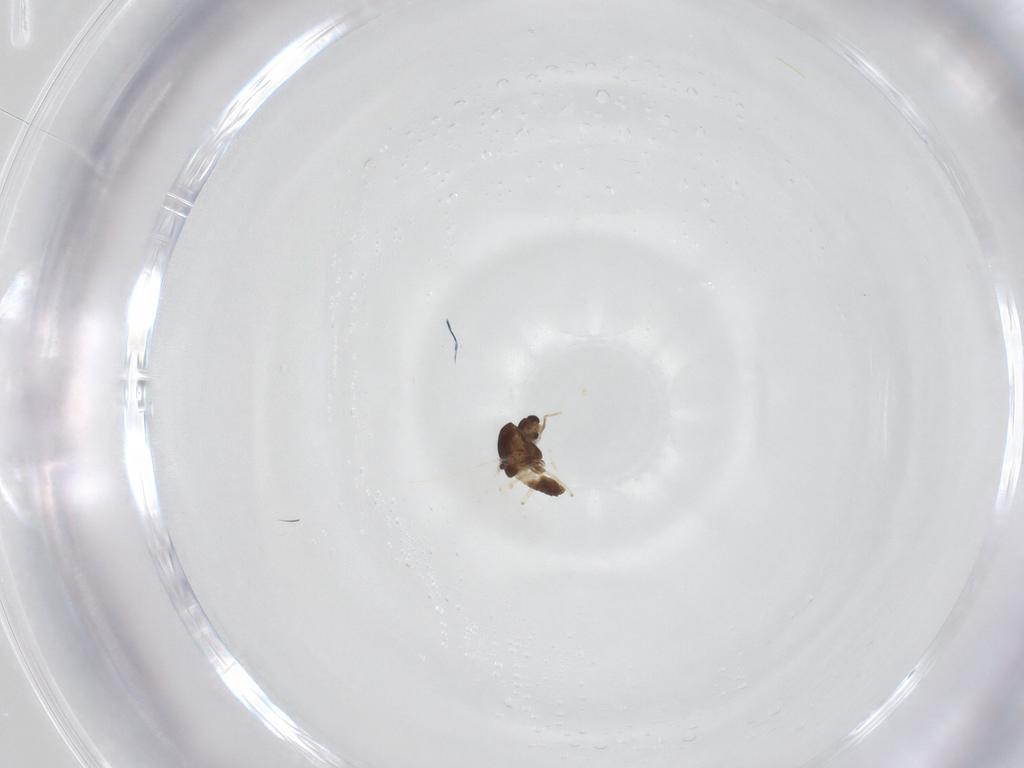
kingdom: Animalia
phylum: Arthropoda
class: Insecta
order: Diptera
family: Chironomidae
